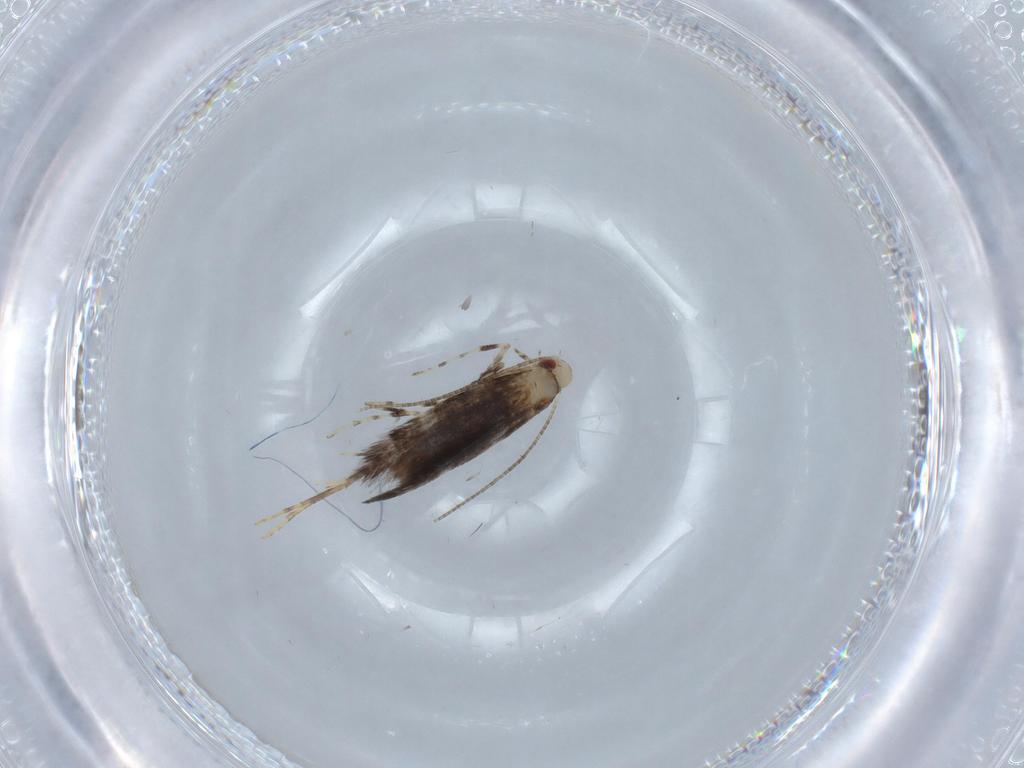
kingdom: Animalia
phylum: Arthropoda
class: Insecta
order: Lepidoptera
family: Gracillariidae
